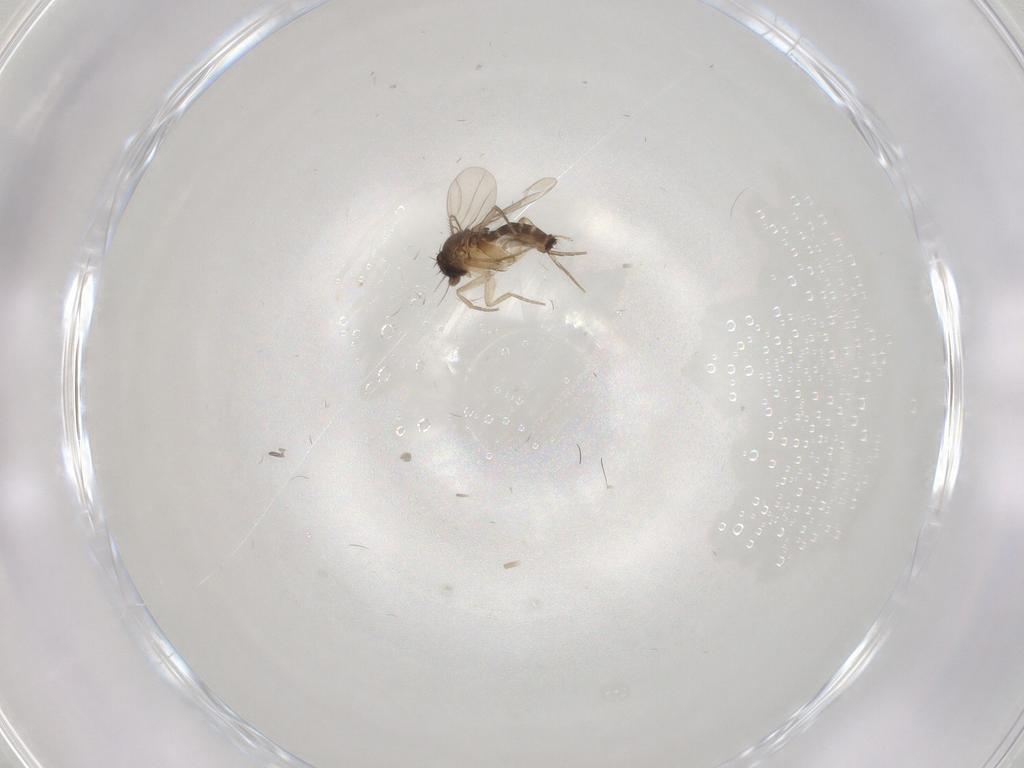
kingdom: Animalia
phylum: Arthropoda
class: Insecta
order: Diptera
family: Phoridae
